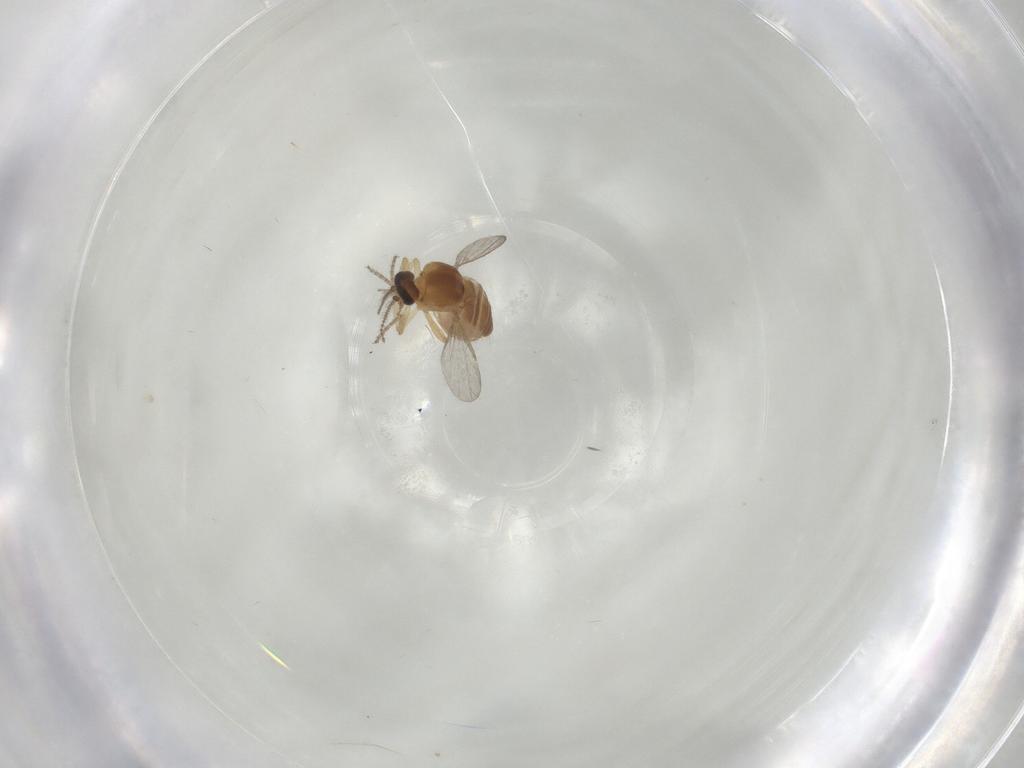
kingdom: Animalia
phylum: Arthropoda
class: Insecta
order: Diptera
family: Ceratopogonidae
